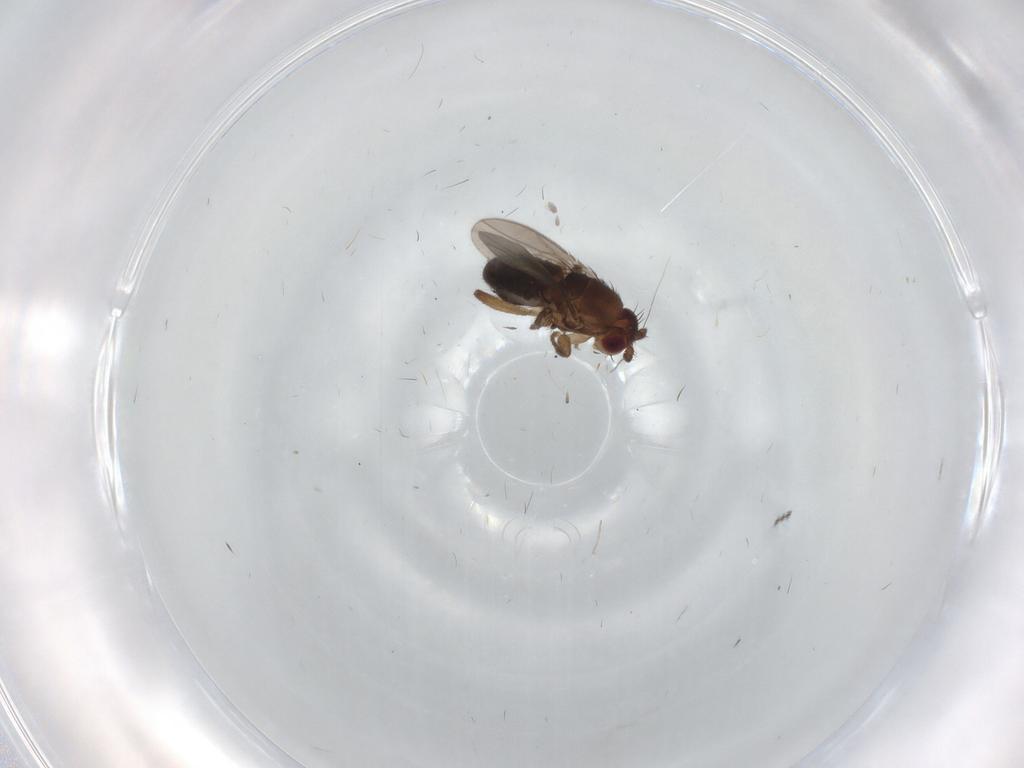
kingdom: Animalia
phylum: Arthropoda
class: Insecta
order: Diptera
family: Sphaeroceridae
